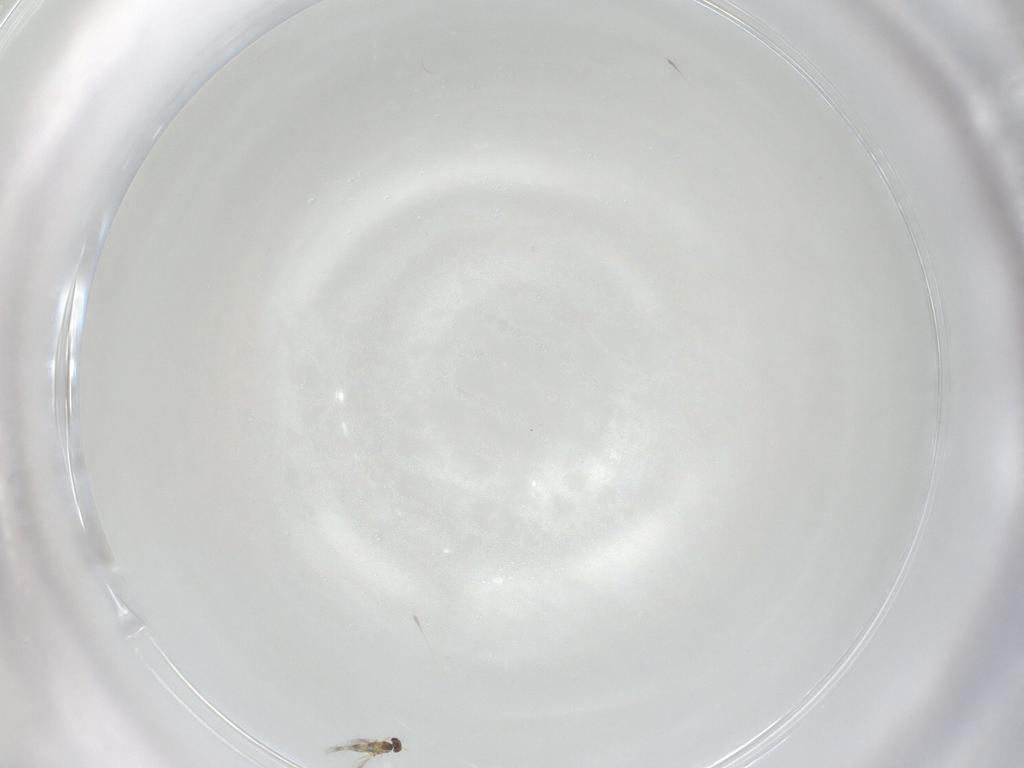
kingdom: Animalia
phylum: Arthropoda
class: Insecta
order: Hymenoptera
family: Mymaridae
